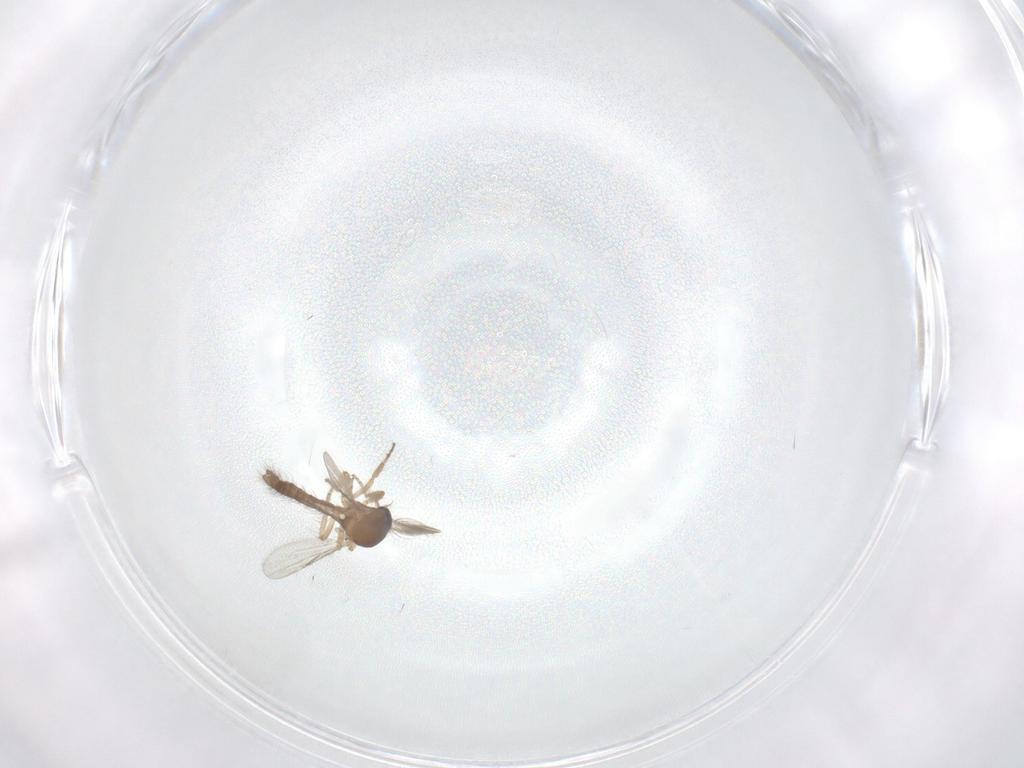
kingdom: Animalia
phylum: Arthropoda
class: Insecta
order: Diptera
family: Ceratopogonidae
